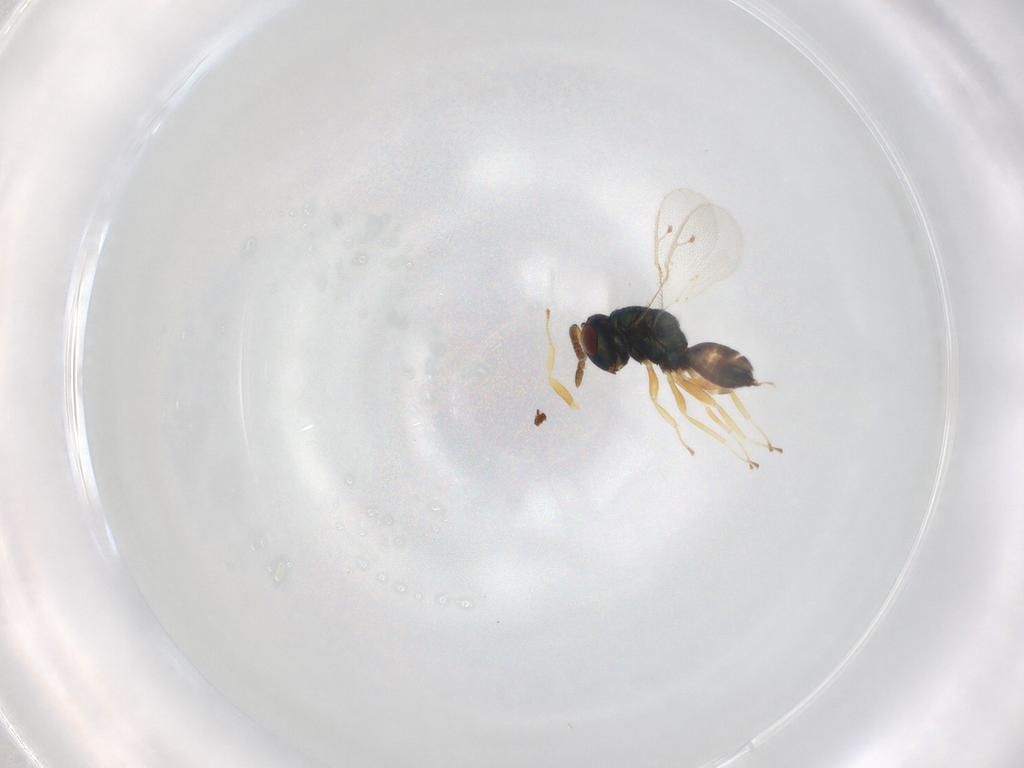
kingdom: Animalia
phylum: Arthropoda
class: Insecta
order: Hymenoptera
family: Pteromalidae
